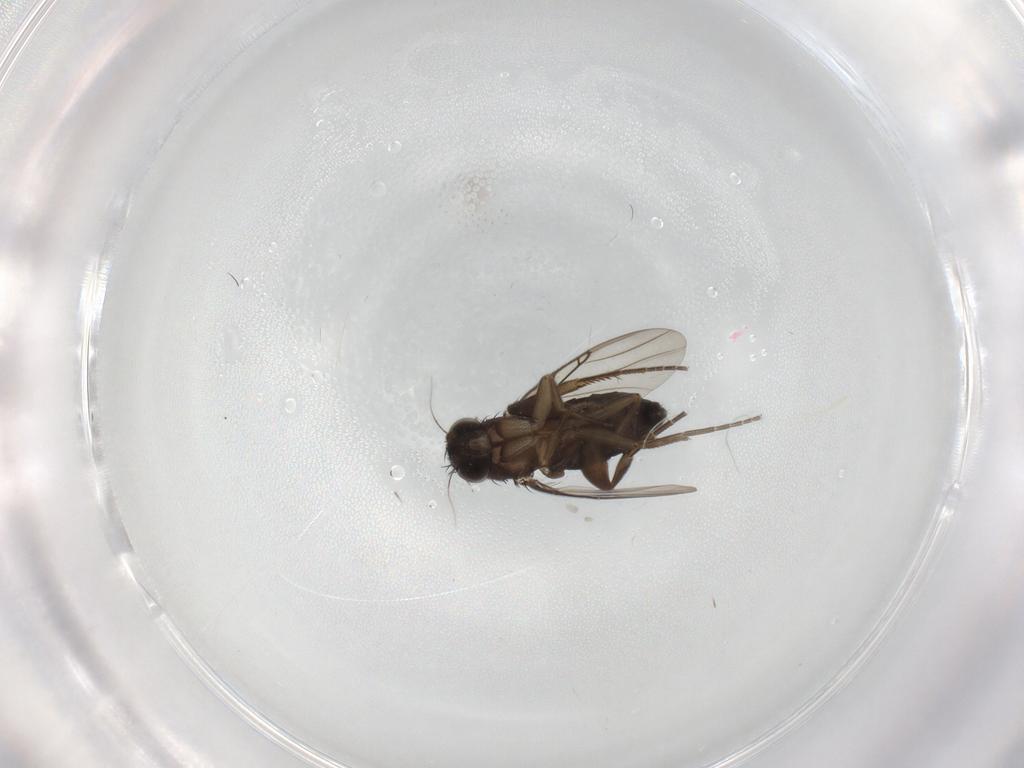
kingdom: Animalia
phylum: Arthropoda
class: Insecta
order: Diptera
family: Phoridae
